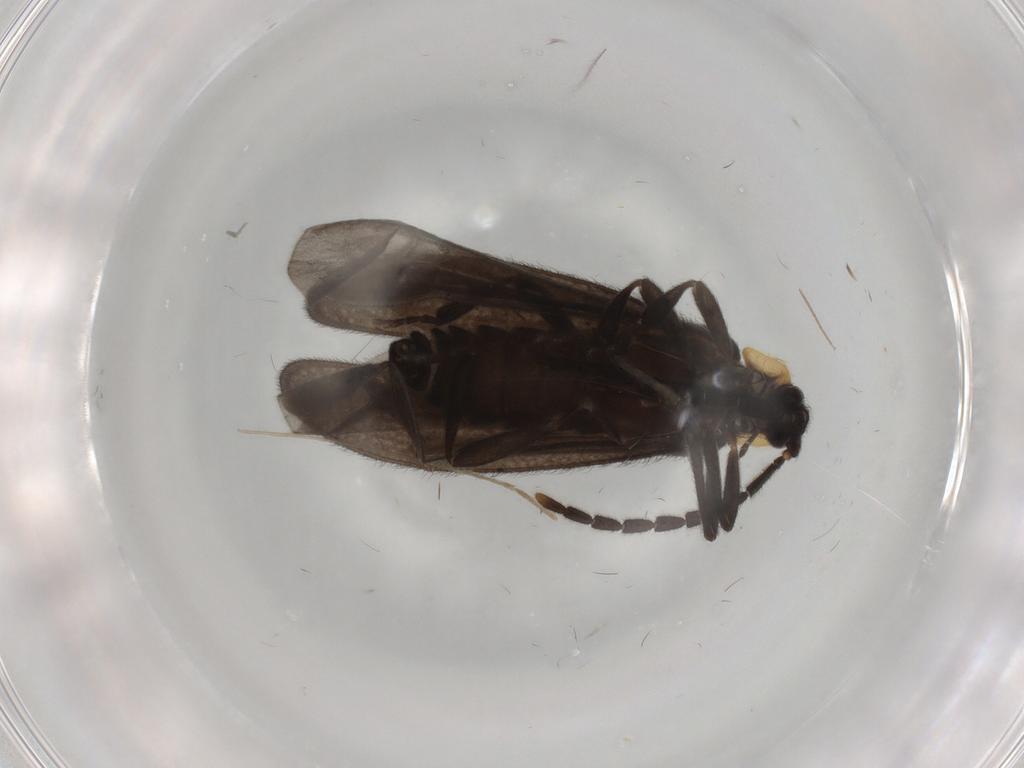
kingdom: Animalia
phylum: Arthropoda
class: Insecta
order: Coleoptera
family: Lycidae
